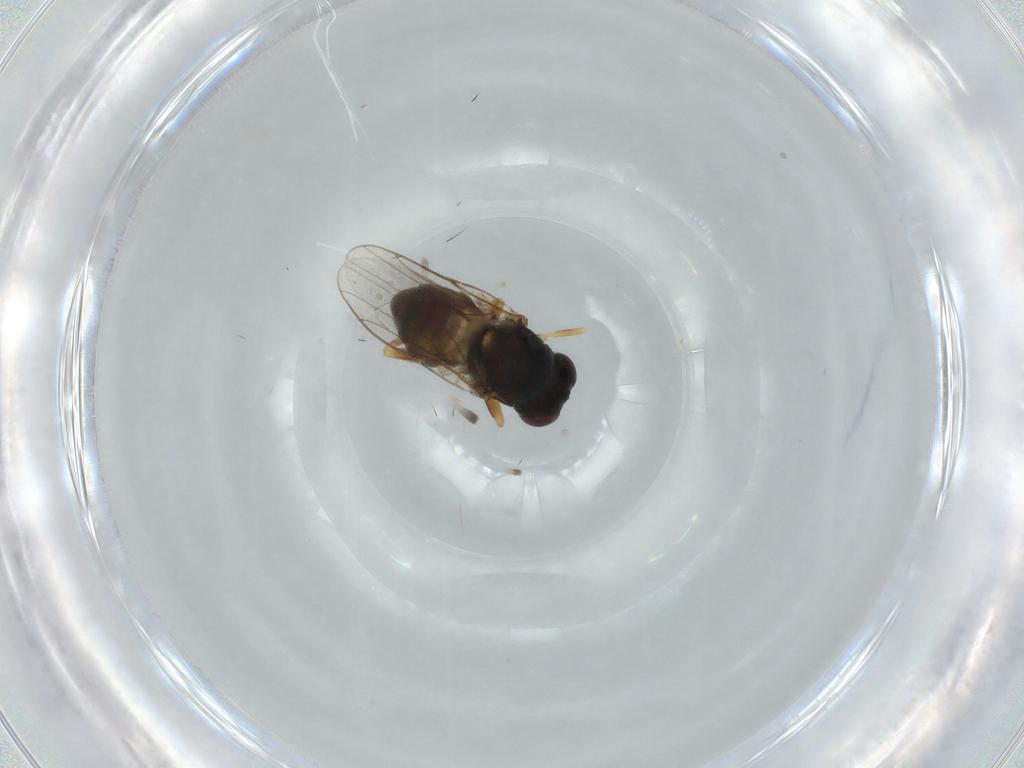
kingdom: Animalia
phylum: Arthropoda
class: Insecta
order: Diptera
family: Chloropidae
